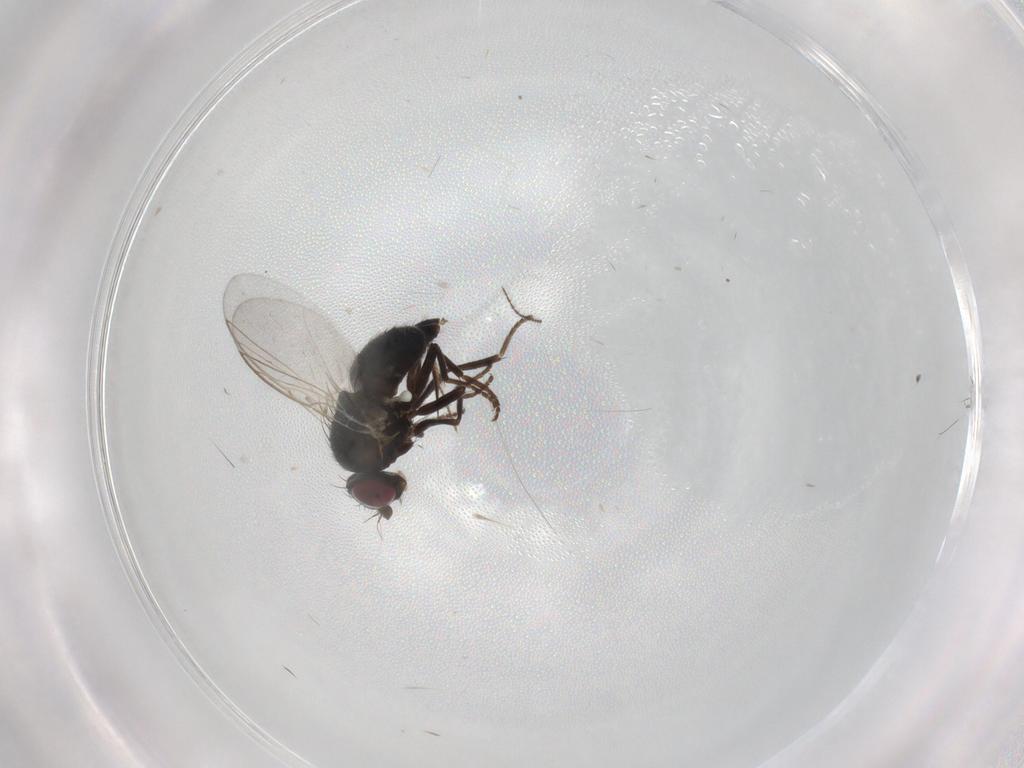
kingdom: Animalia
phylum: Arthropoda
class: Insecta
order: Diptera
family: Agromyzidae
